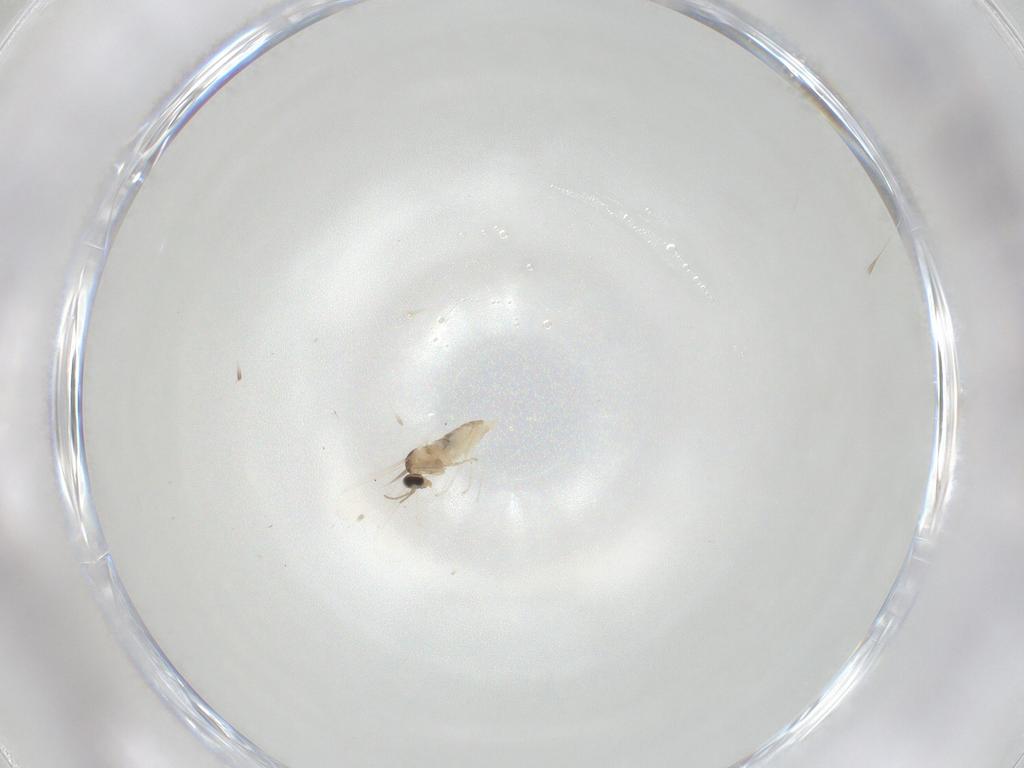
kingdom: Animalia
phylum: Arthropoda
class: Insecta
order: Diptera
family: Cecidomyiidae
